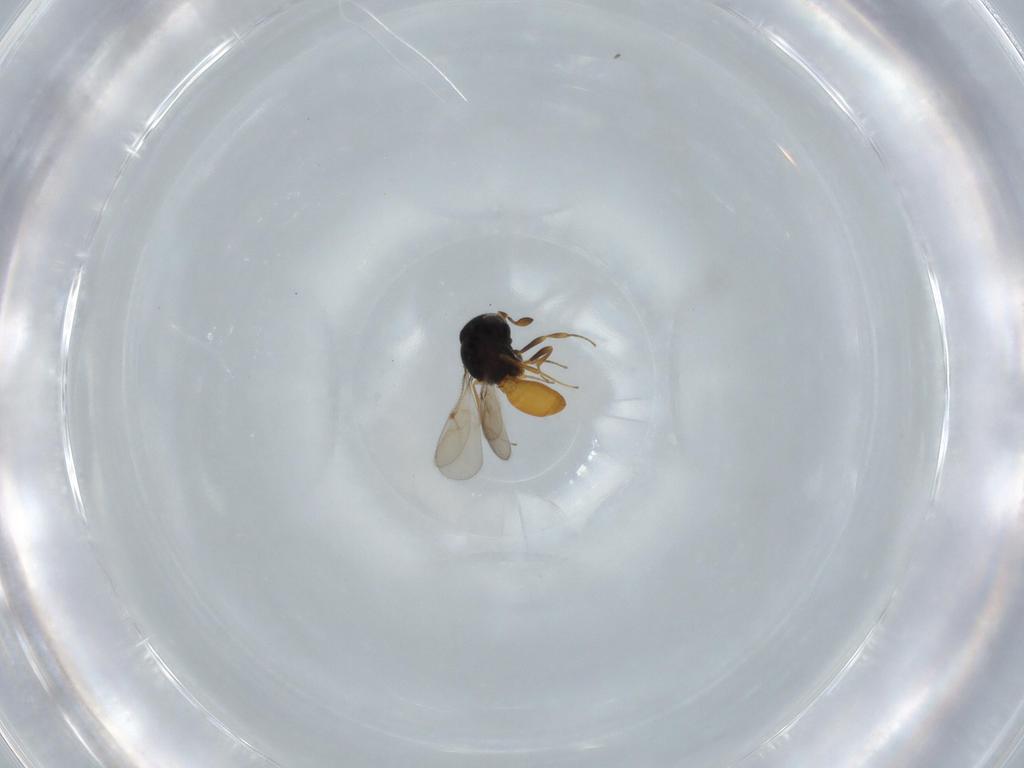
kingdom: Animalia
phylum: Arthropoda
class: Insecta
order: Hymenoptera
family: Scelionidae
